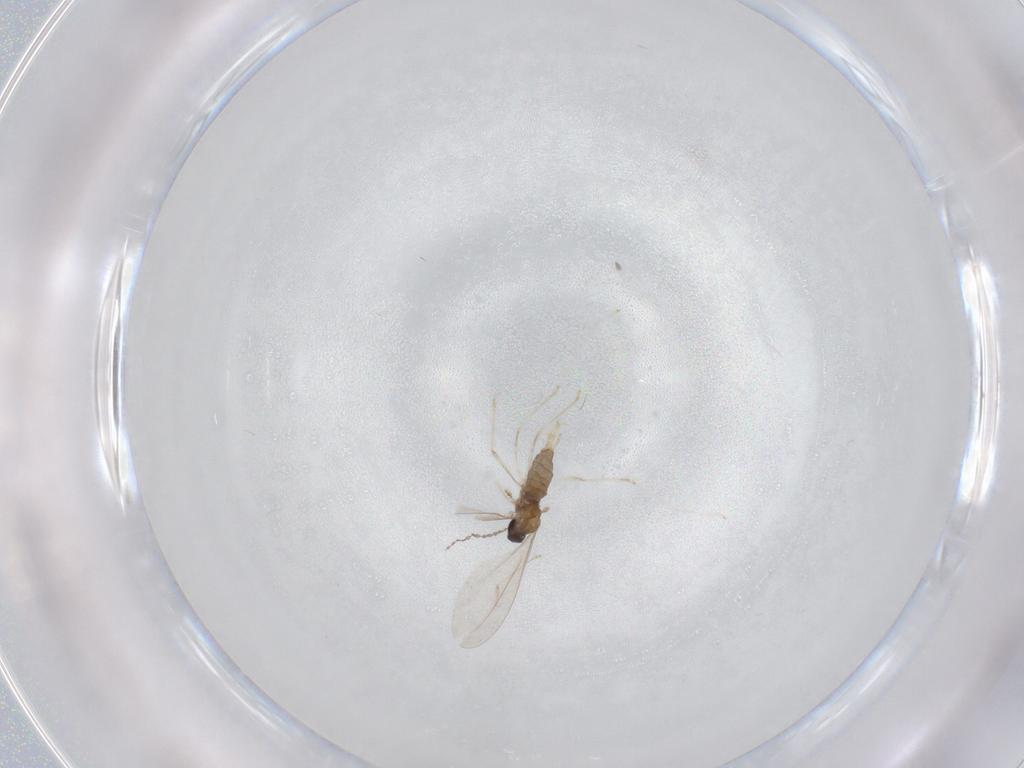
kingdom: Animalia
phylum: Arthropoda
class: Insecta
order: Diptera
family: Cecidomyiidae
